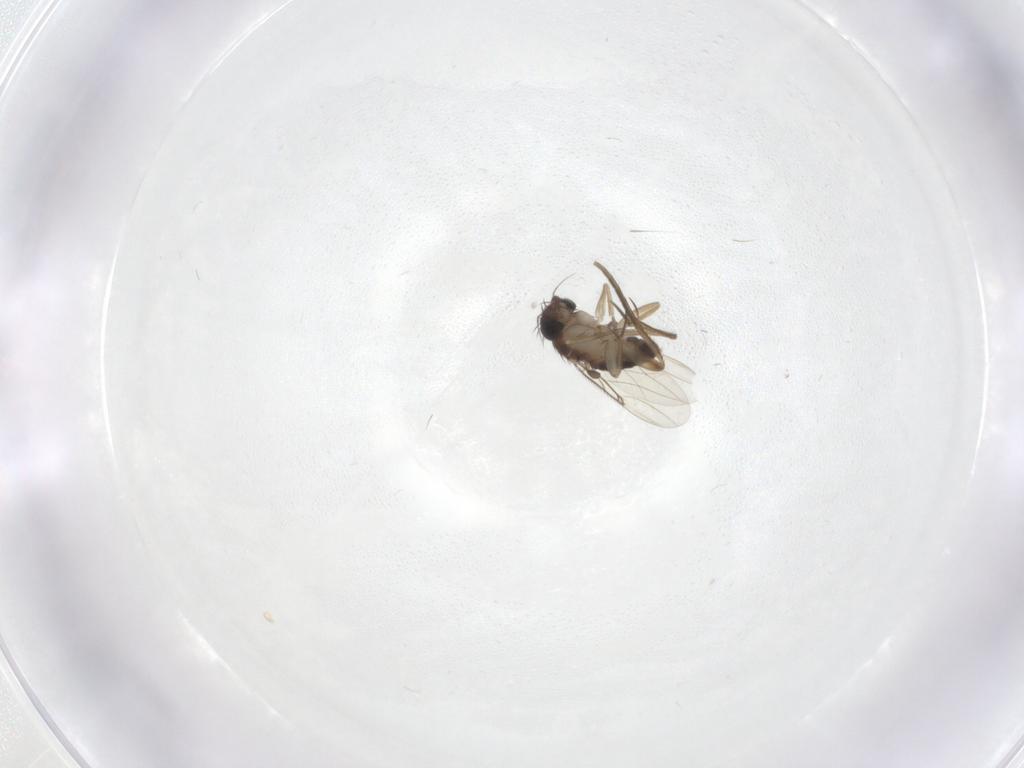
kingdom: Animalia
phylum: Arthropoda
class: Insecta
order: Diptera
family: Phoridae
